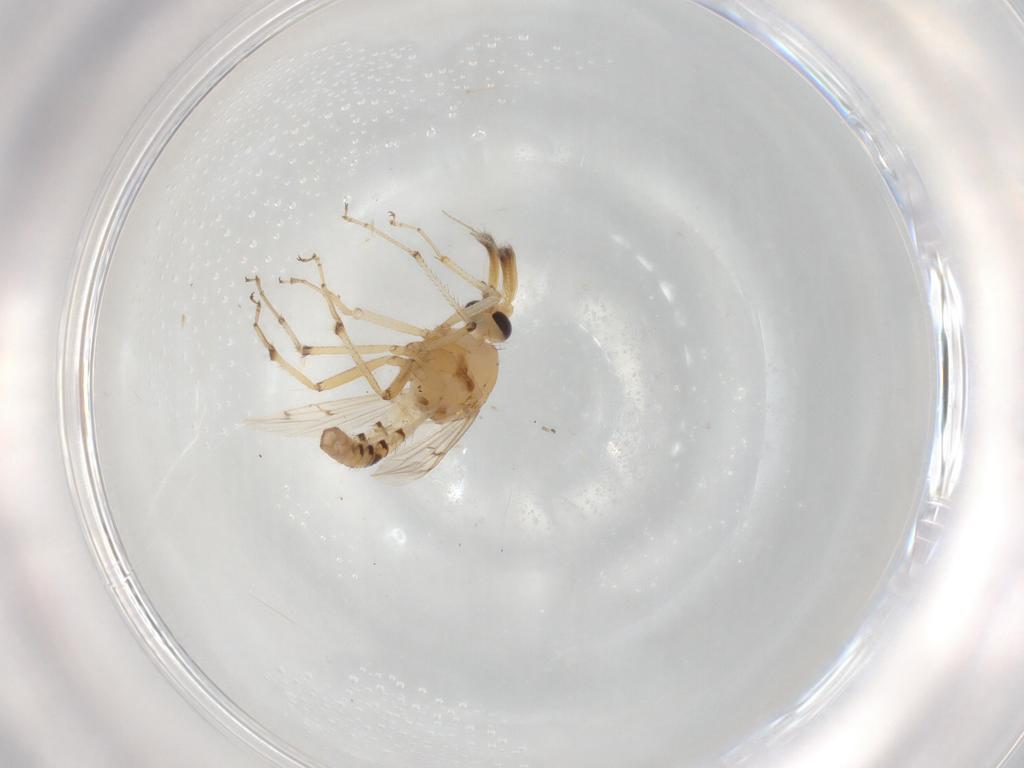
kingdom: Animalia
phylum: Arthropoda
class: Insecta
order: Diptera
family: Ceratopogonidae
